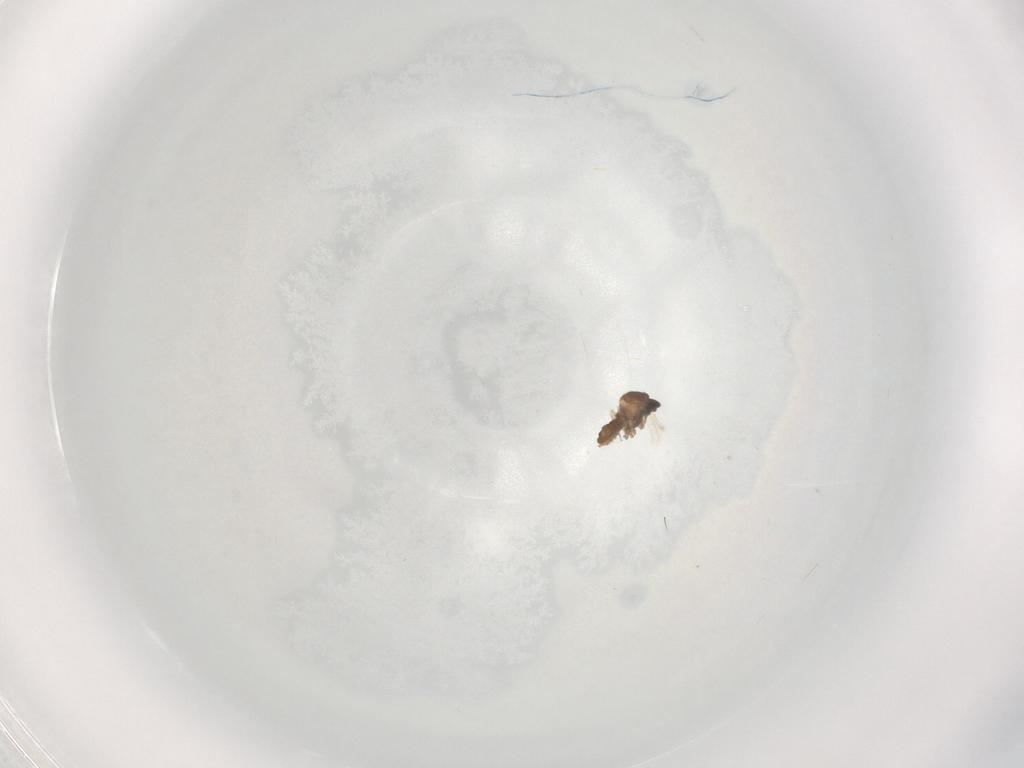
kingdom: Animalia
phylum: Arthropoda
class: Insecta
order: Diptera
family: Cecidomyiidae
